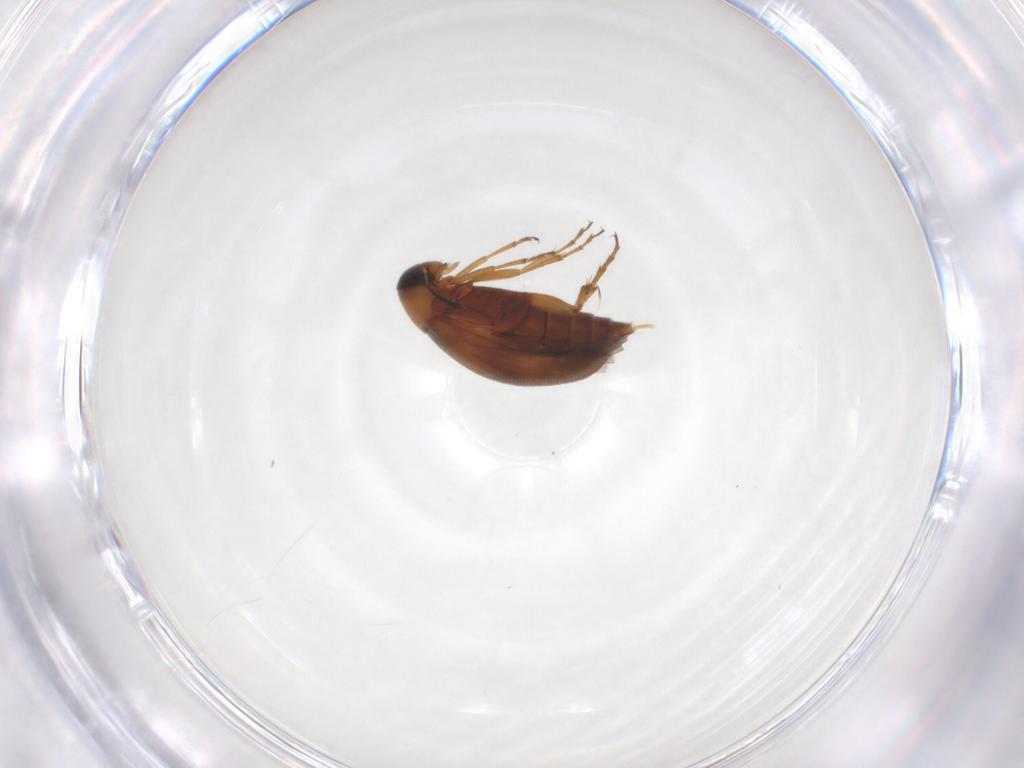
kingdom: Animalia
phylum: Arthropoda
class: Insecta
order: Coleoptera
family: Scraptiidae
